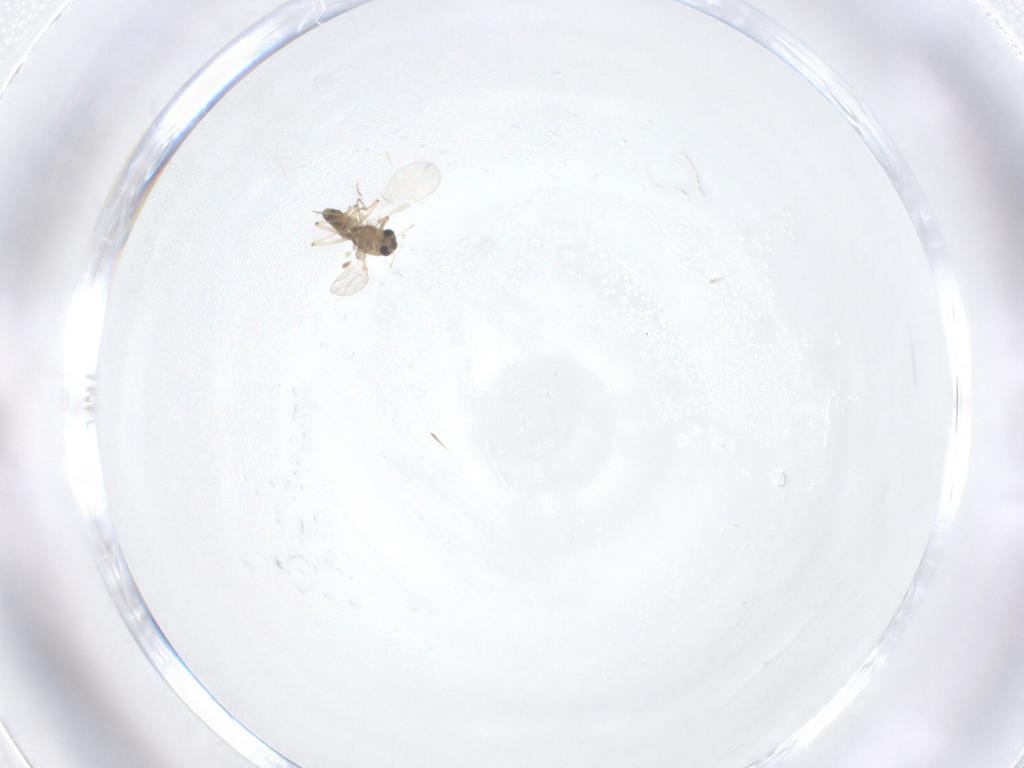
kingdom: Animalia
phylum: Arthropoda
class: Insecta
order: Diptera
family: Chironomidae
